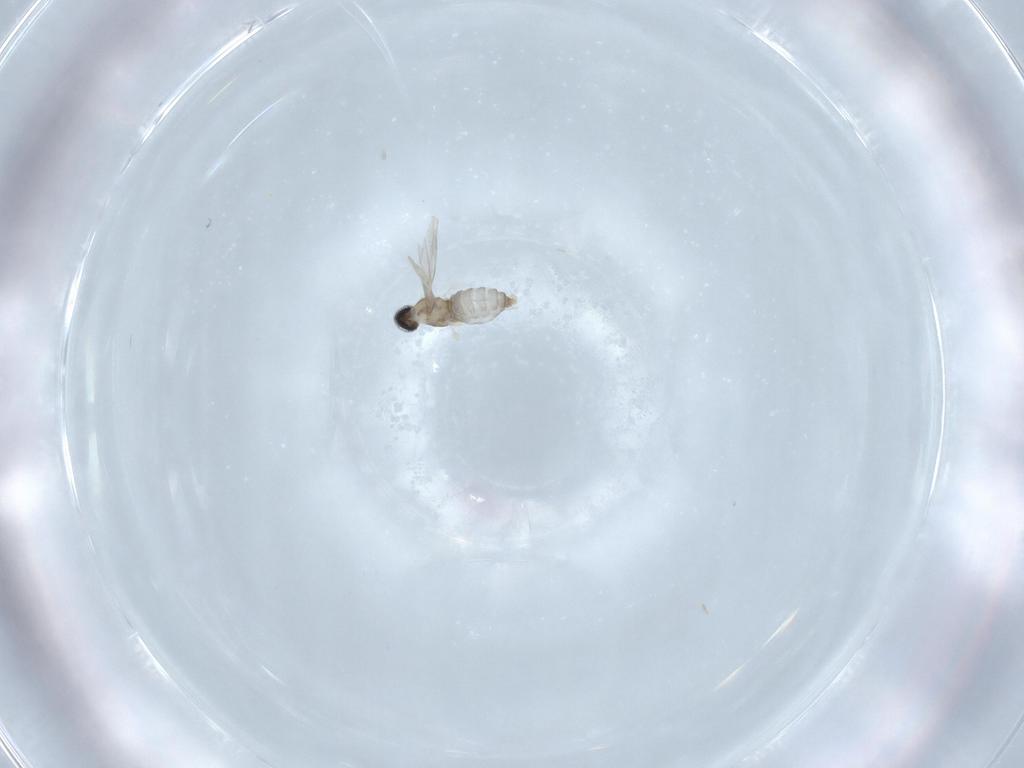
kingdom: Animalia
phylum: Arthropoda
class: Insecta
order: Diptera
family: Cecidomyiidae
